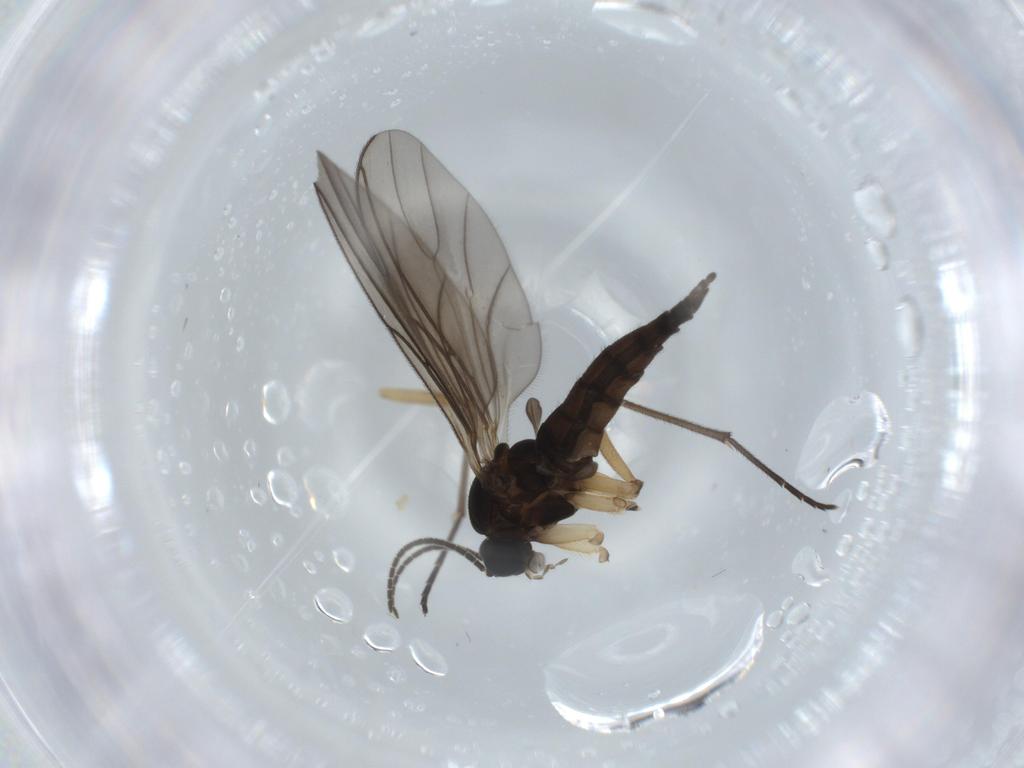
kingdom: Animalia
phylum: Arthropoda
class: Insecta
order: Diptera
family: Sciaridae
